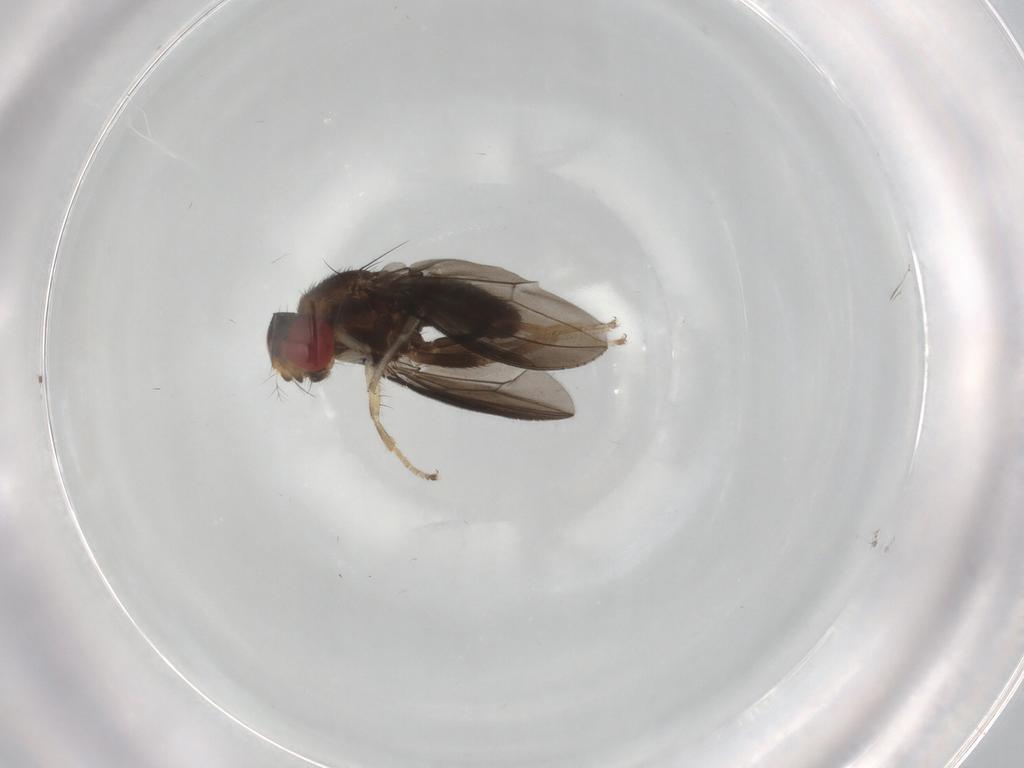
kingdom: Animalia
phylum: Arthropoda
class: Insecta
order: Diptera
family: Drosophilidae
